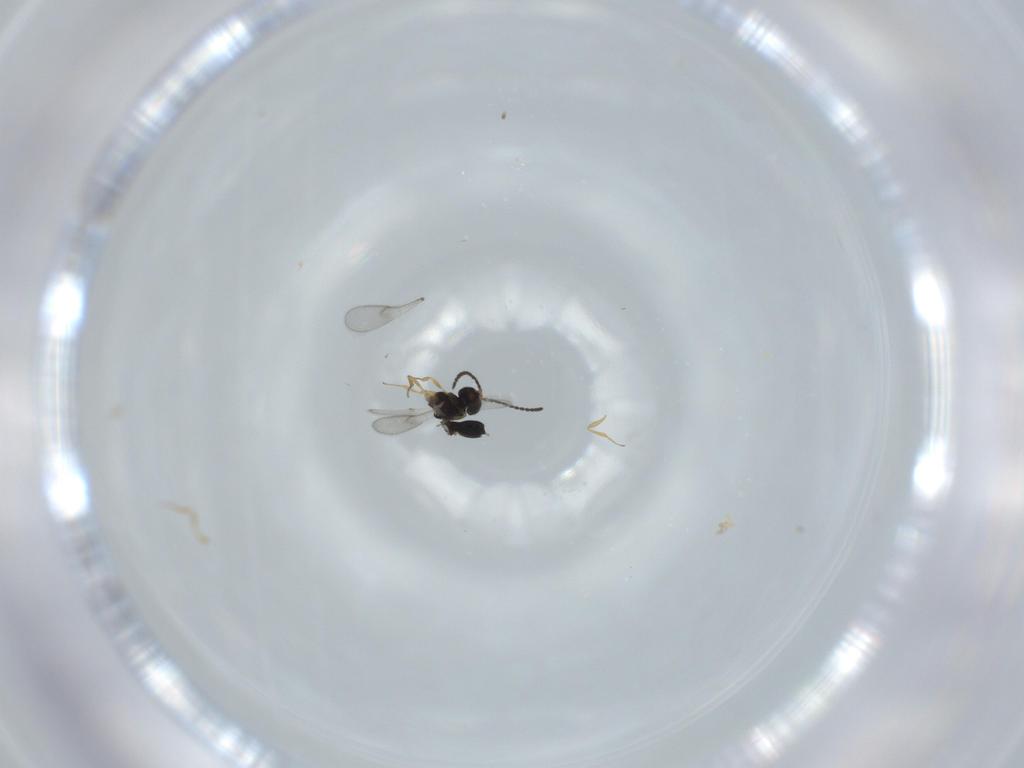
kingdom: Animalia
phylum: Arthropoda
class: Insecta
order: Hymenoptera
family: Scelionidae
